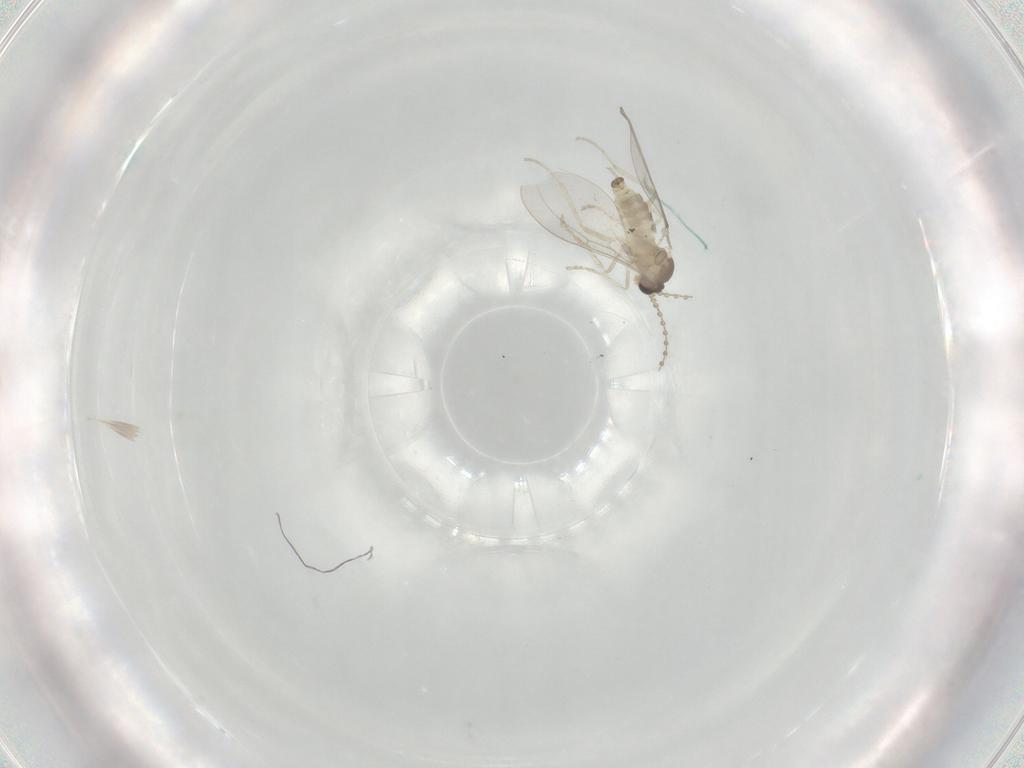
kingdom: Animalia
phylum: Arthropoda
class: Insecta
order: Diptera
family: Cecidomyiidae
